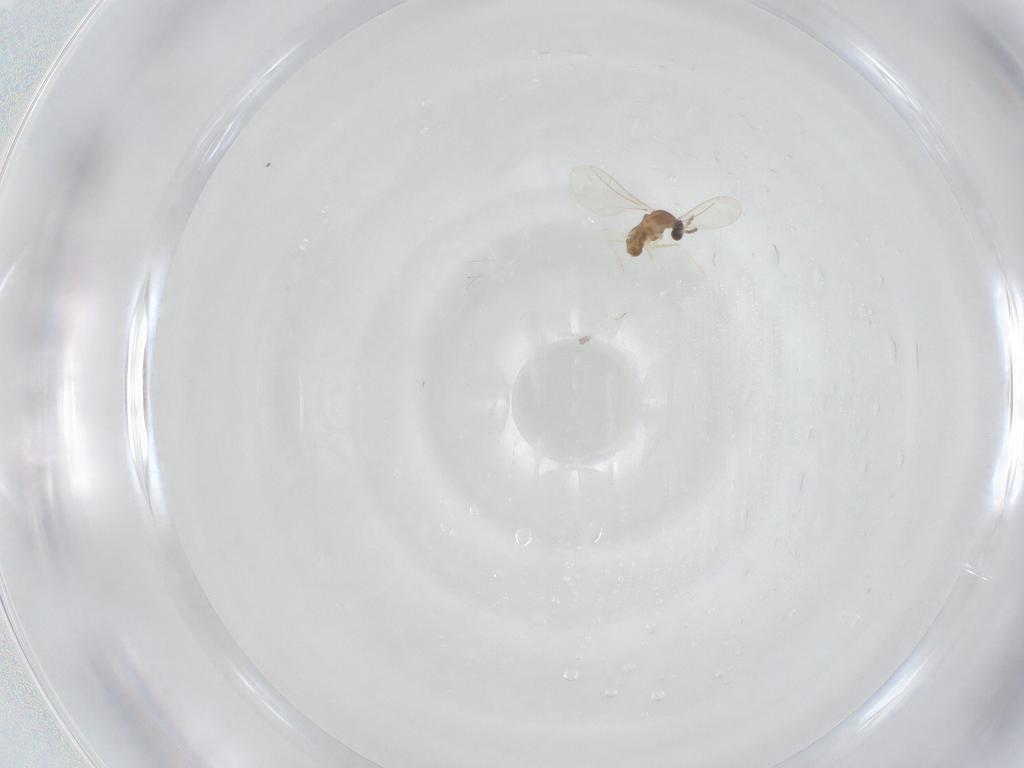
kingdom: Animalia
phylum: Arthropoda
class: Insecta
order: Diptera
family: Cecidomyiidae
